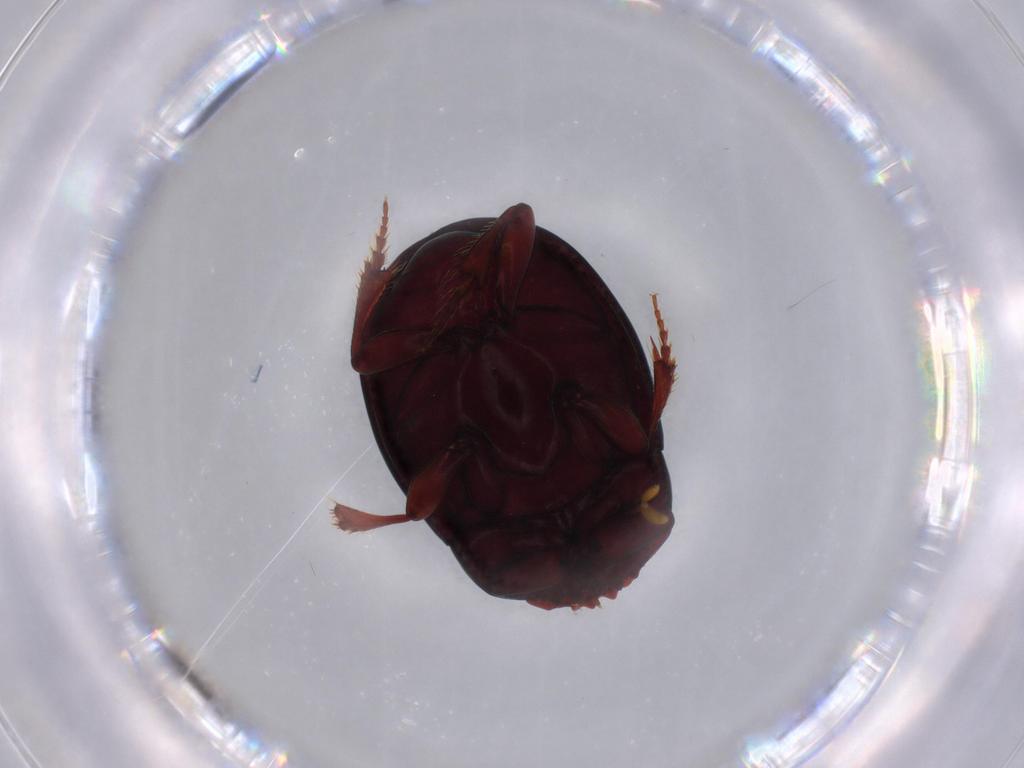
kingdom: Animalia
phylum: Arthropoda
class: Insecta
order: Coleoptera
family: Scarabaeidae
